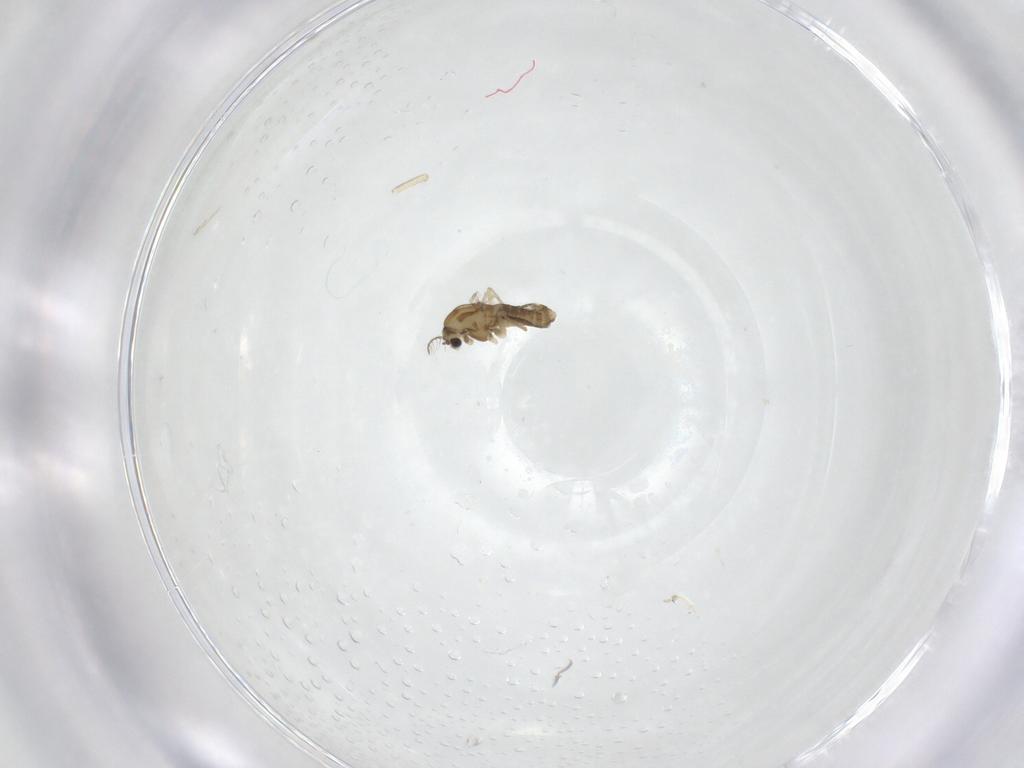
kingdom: Animalia
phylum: Arthropoda
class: Insecta
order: Diptera
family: Chironomidae
